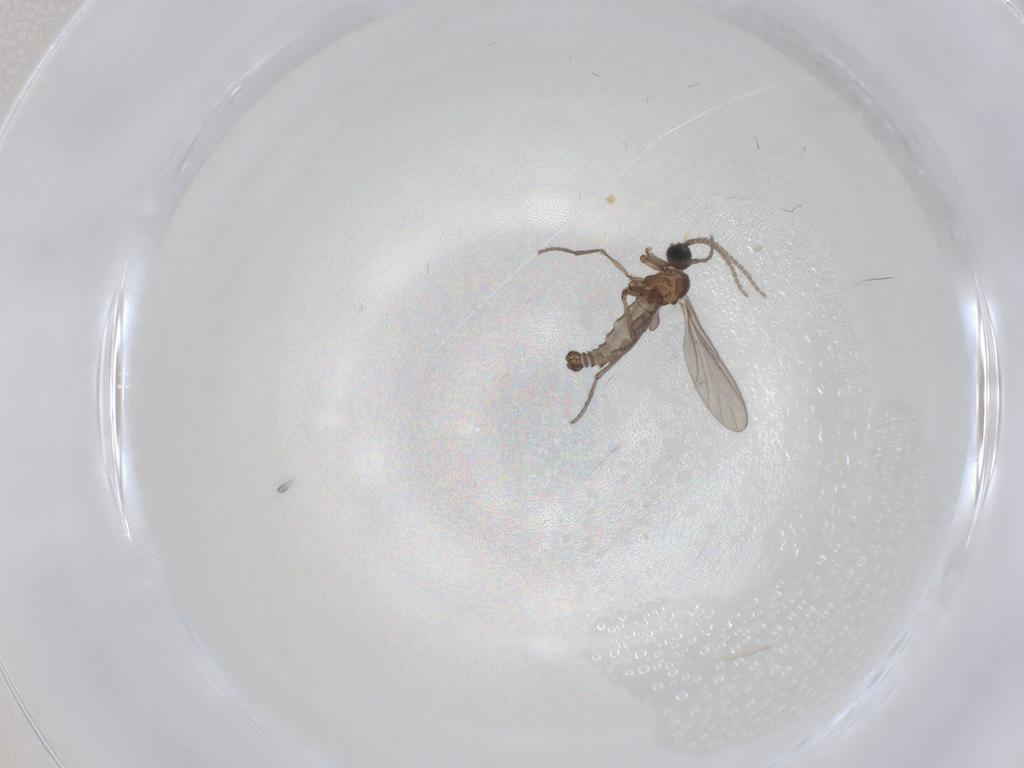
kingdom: Animalia
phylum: Arthropoda
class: Insecta
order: Diptera
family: Sciaridae
